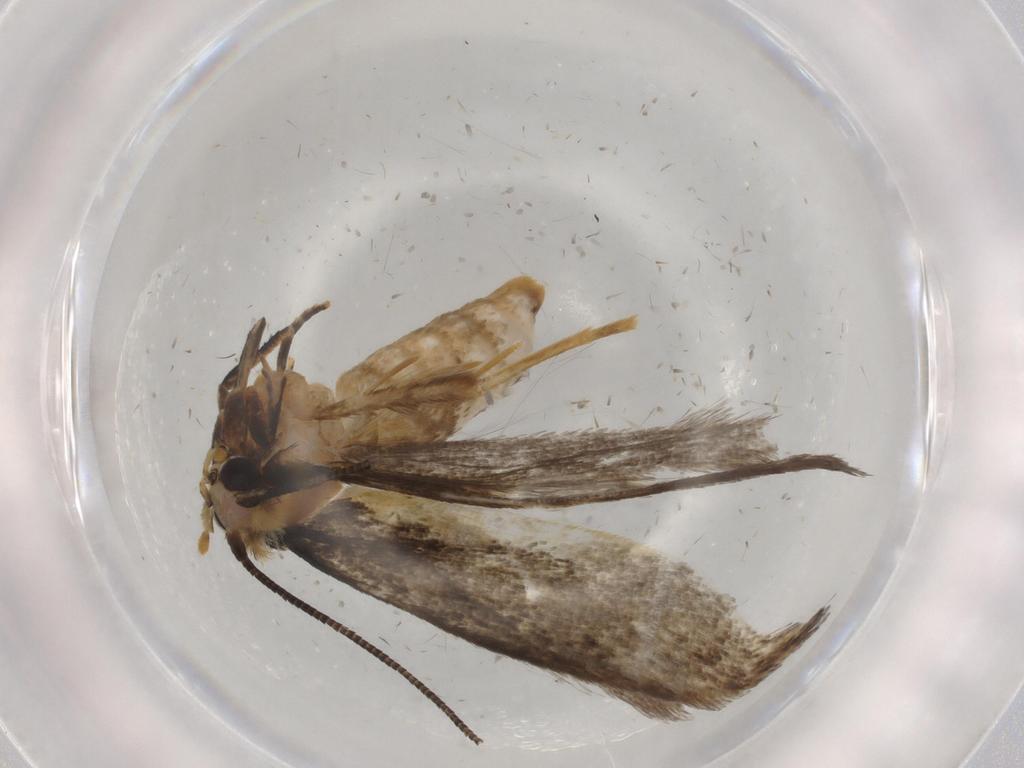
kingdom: Animalia
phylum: Arthropoda
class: Insecta
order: Lepidoptera
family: Tineidae
